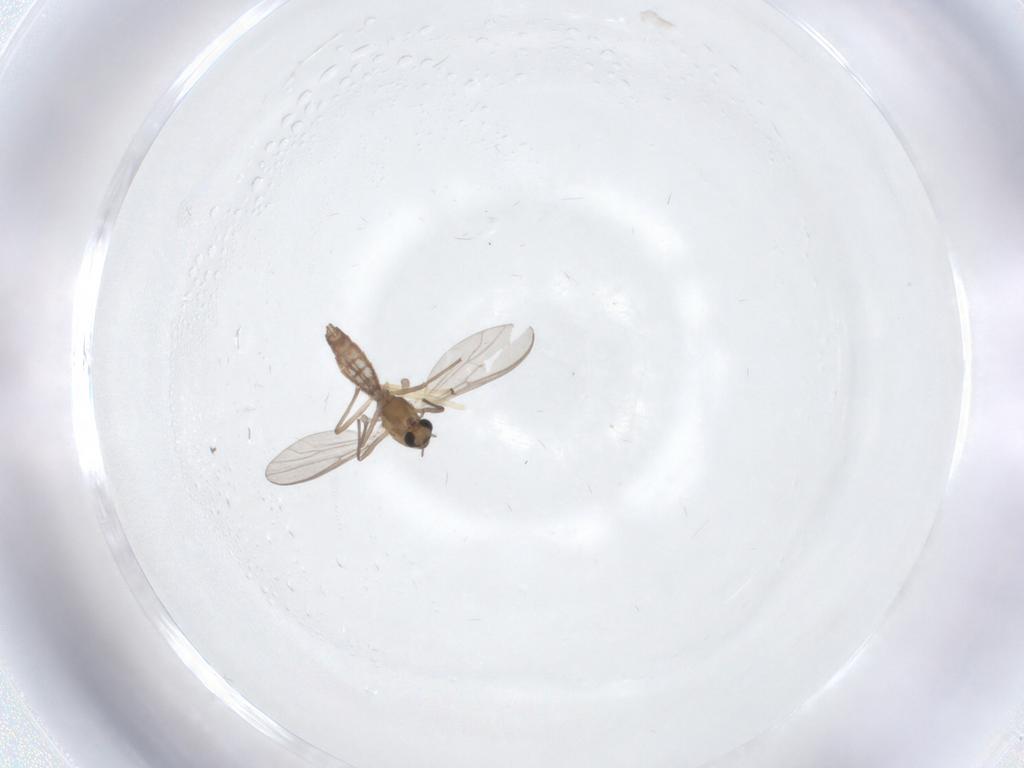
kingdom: Animalia
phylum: Arthropoda
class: Insecta
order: Diptera
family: Chironomidae
